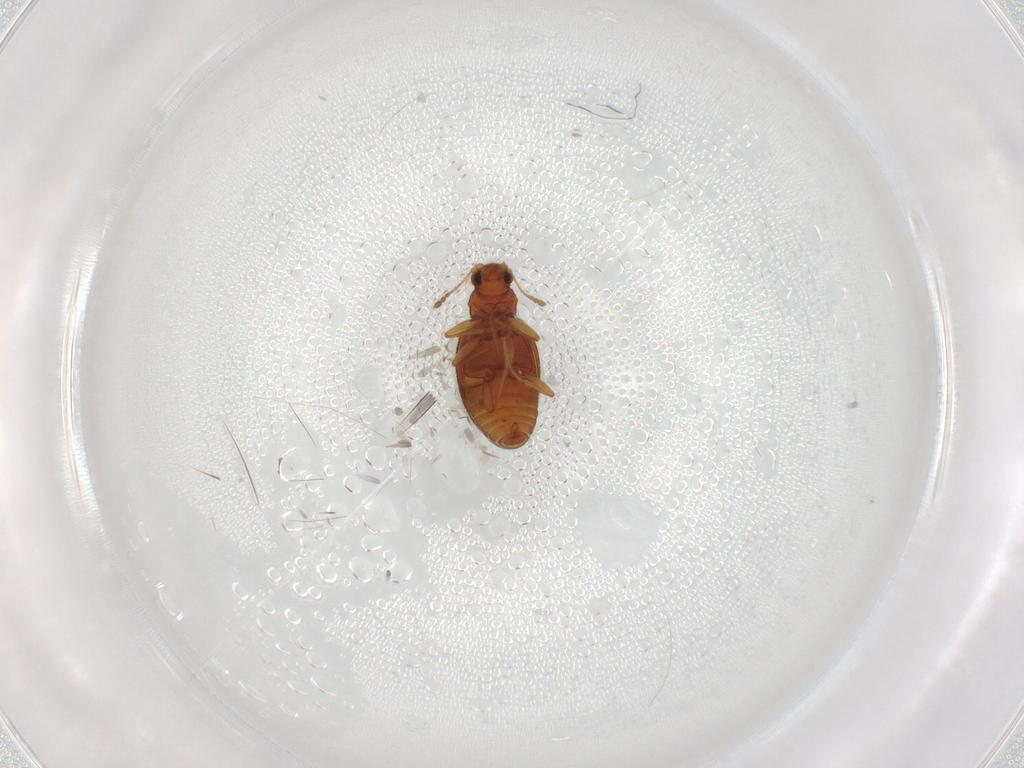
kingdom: Animalia
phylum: Arthropoda
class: Insecta
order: Coleoptera
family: Latridiidae
